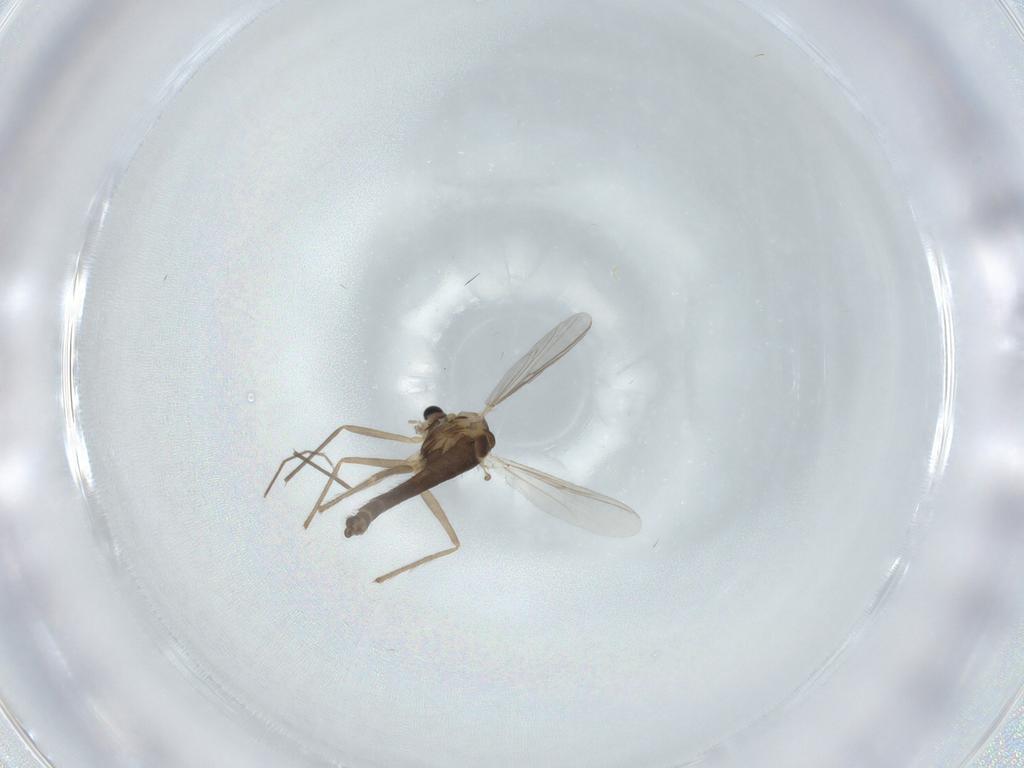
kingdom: Animalia
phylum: Arthropoda
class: Insecta
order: Diptera
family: Chironomidae
